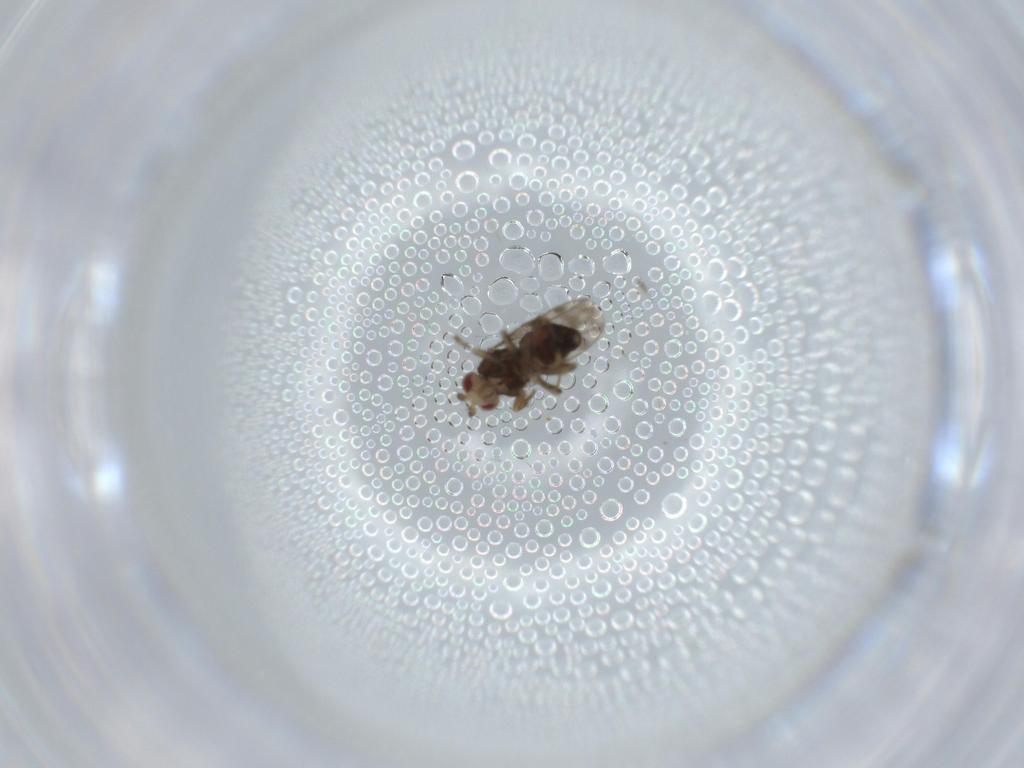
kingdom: Animalia
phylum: Arthropoda
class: Insecta
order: Diptera
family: Sphaeroceridae
